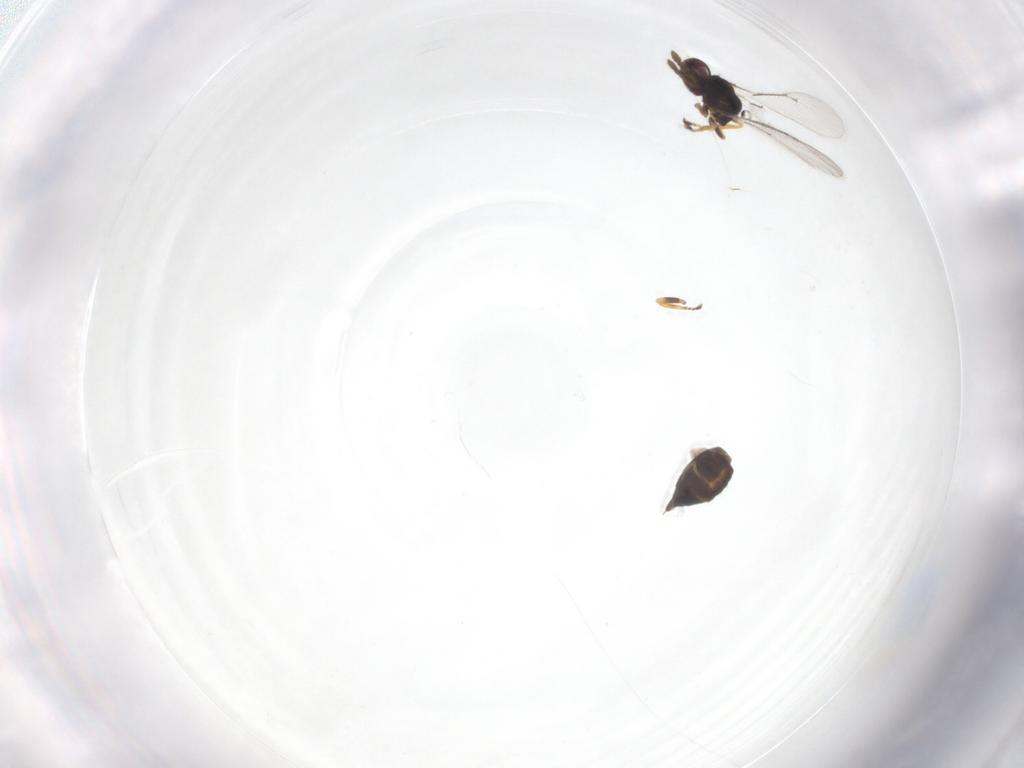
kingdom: Animalia
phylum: Arthropoda
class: Insecta
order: Hymenoptera
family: Eulophidae
